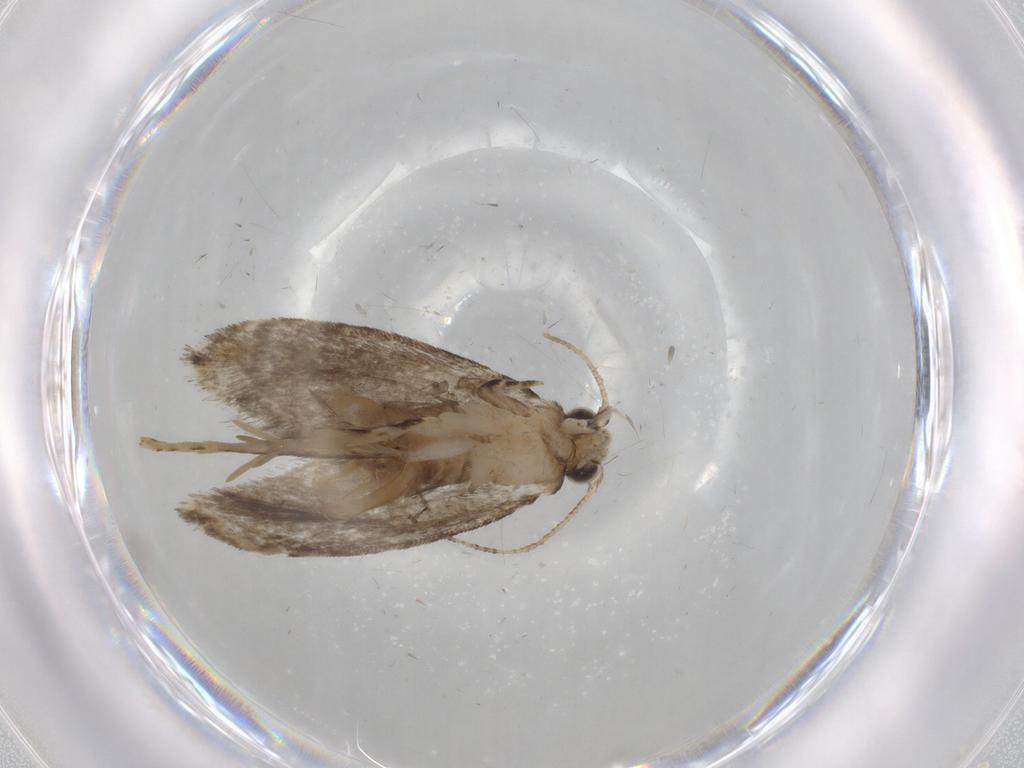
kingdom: Animalia
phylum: Arthropoda
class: Insecta
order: Lepidoptera
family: Tineidae
